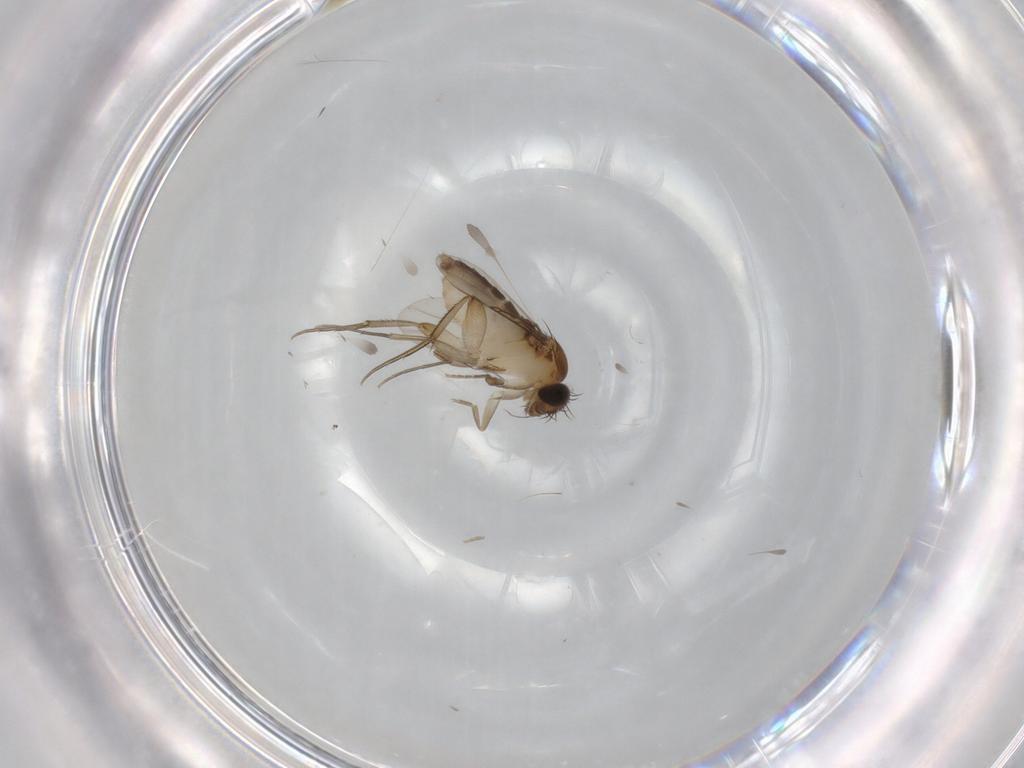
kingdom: Animalia
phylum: Arthropoda
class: Insecta
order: Diptera
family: Phoridae
